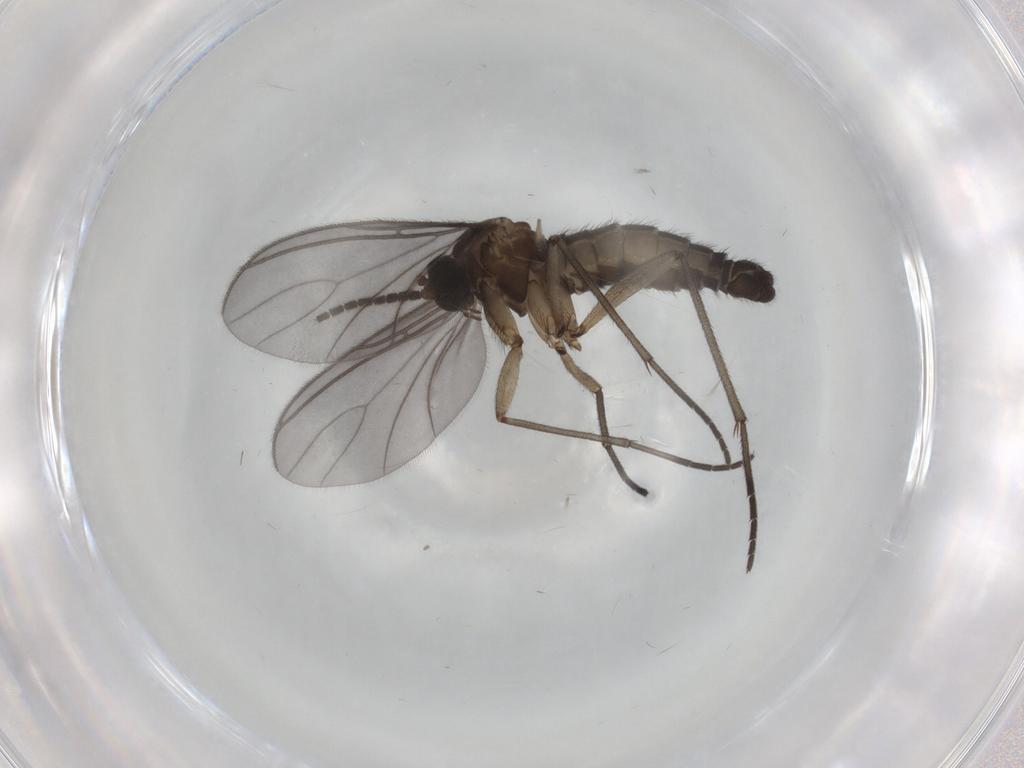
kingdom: Animalia
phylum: Arthropoda
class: Insecta
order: Diptera
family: Sciaridae
